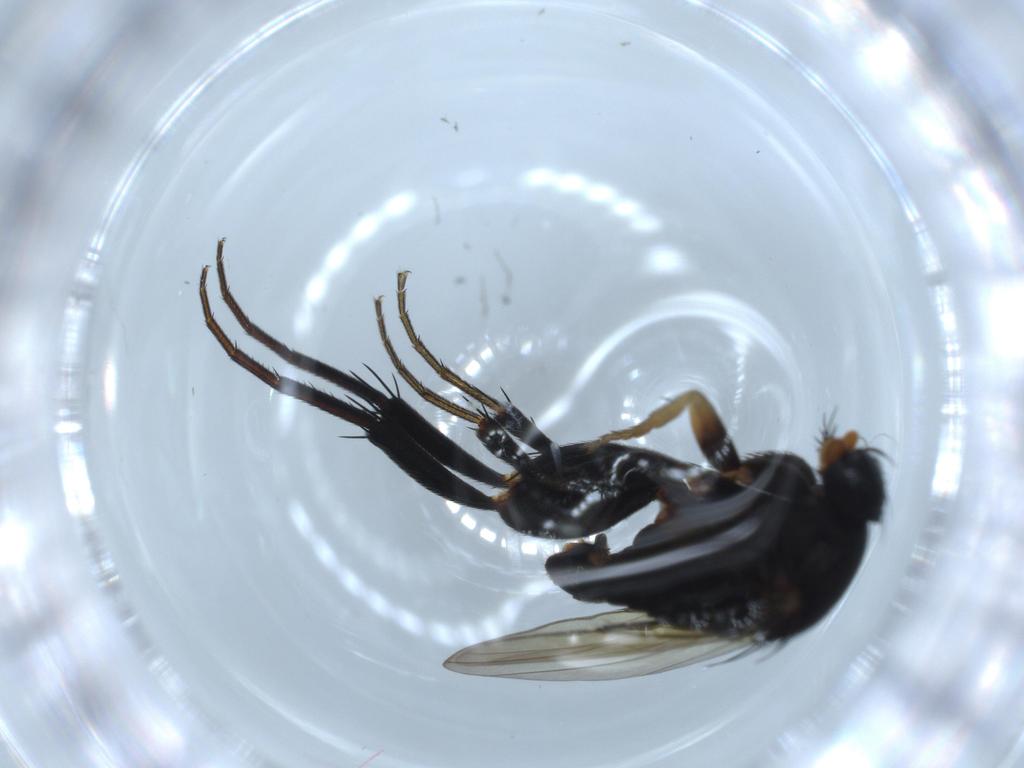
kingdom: Animalia
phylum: Arthropoda
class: Insecta
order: Diptera
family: Phoridae
